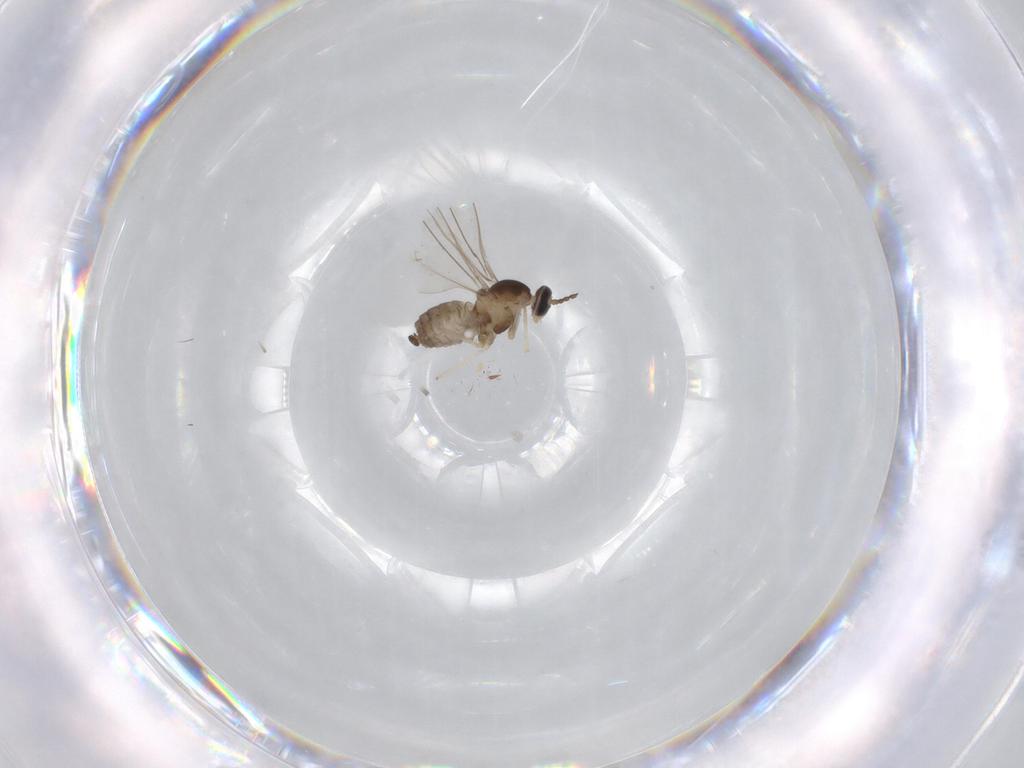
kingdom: Animalia
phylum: Arthropoda
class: Insecta
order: Diptera
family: Cecidomyiidae
